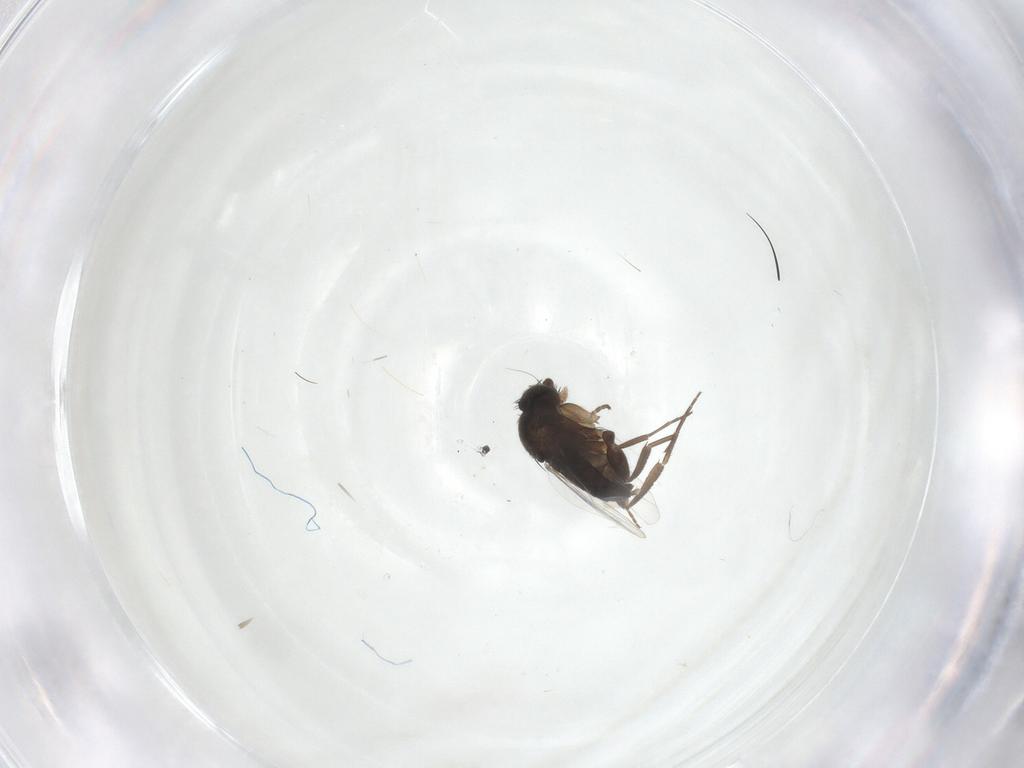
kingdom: Animalia
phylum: Arthropoda
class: Insecta
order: Diptera
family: Phoridae
